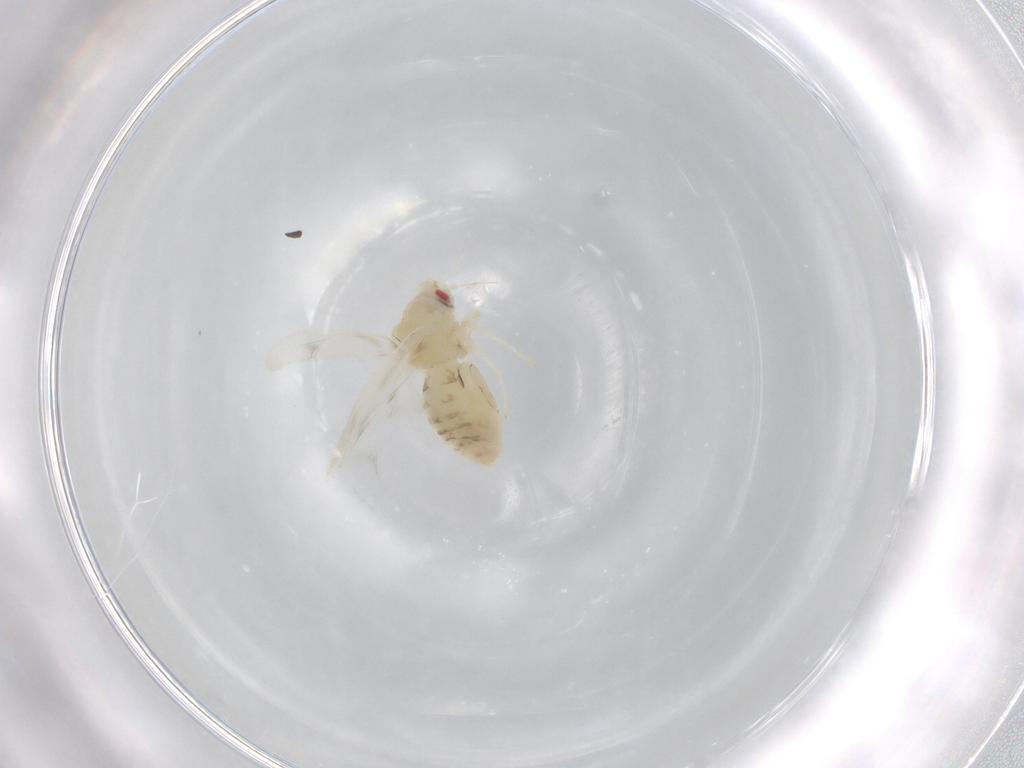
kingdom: Animalia
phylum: Arthropoda
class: Insecta
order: Hemiptera
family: Aleyrodidae
